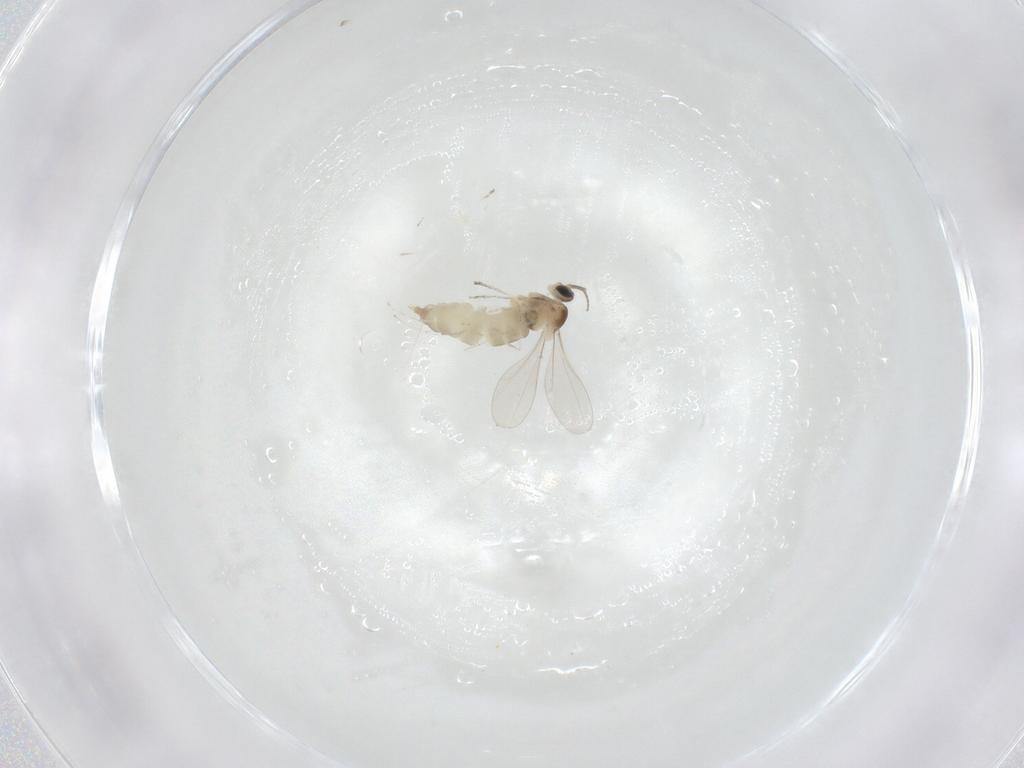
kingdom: Animalia
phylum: Arthropoda
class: Insecta
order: Diptera
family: Cecidomyiidae
